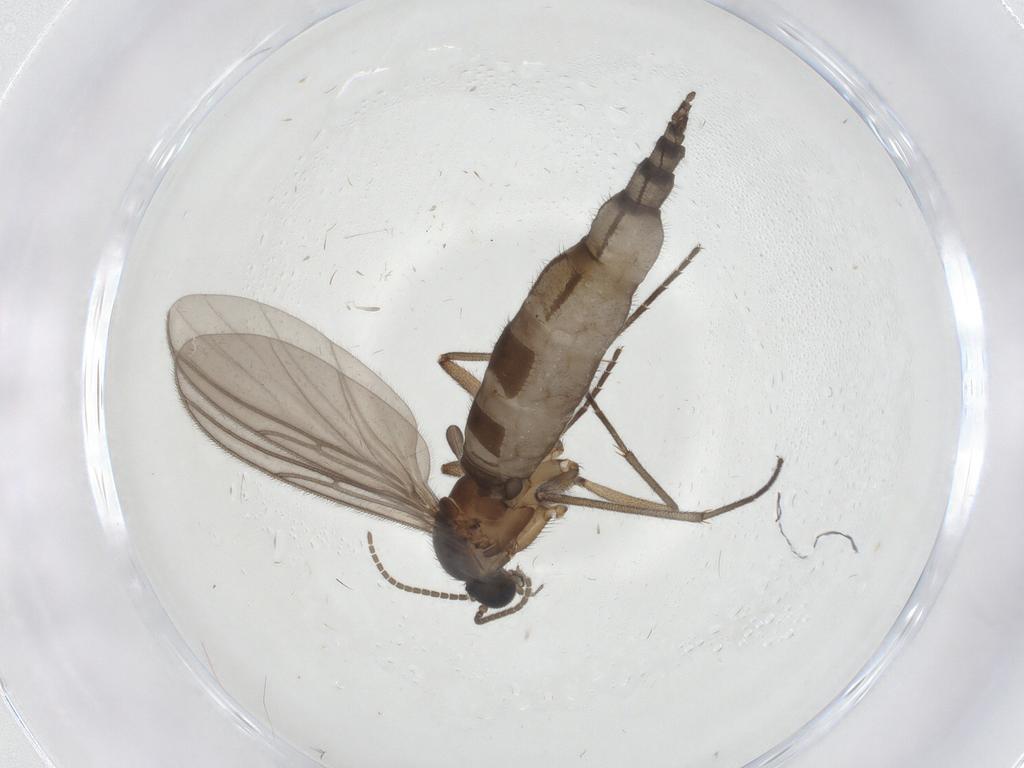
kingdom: Animalia
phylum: Arthropoda
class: Insecta
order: Diptera
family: Cecidomyiidae
